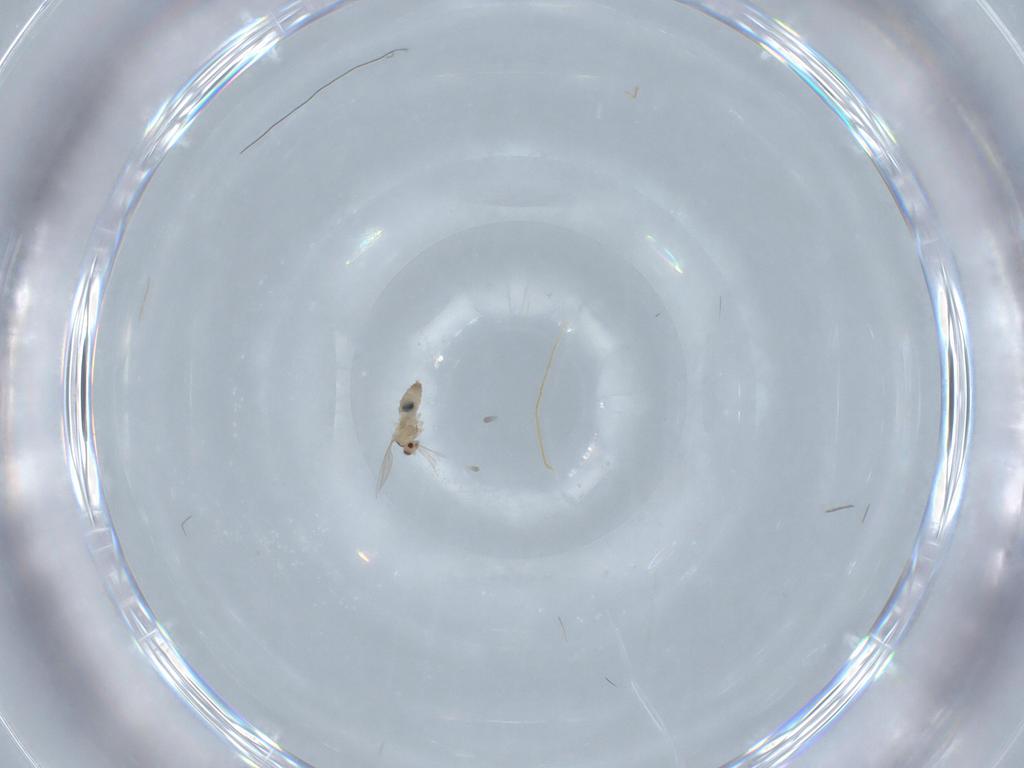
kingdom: Animalia
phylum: Arthropoda
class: Insecta
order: Diptera
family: Cecidomyiidae
